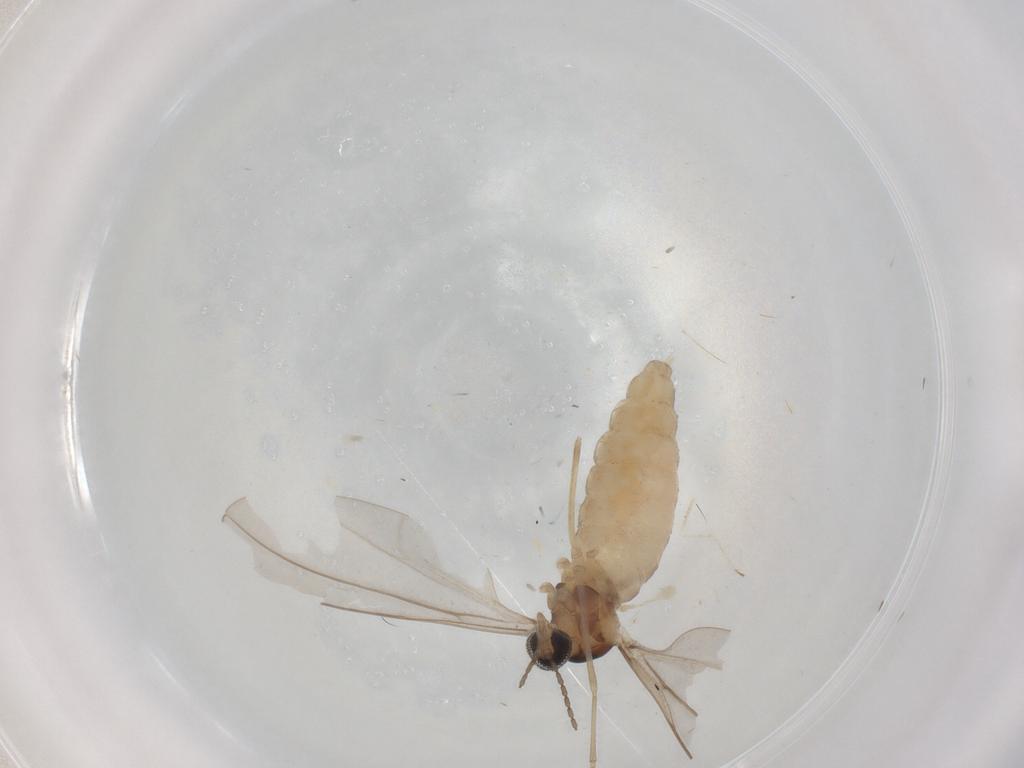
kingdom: Animalia
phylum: Arthropoda
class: Insecta
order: Diptera
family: Cecidomyiidae
